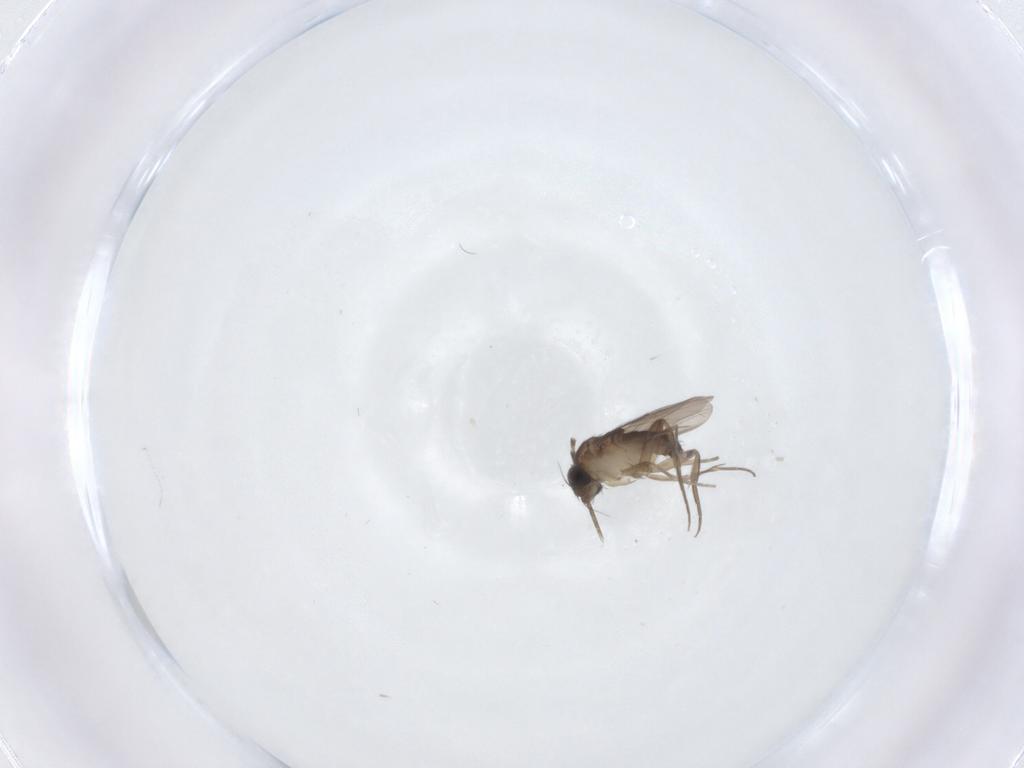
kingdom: Animalia
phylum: Arthropoda
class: Insecta
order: Diptera
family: Phoridae
